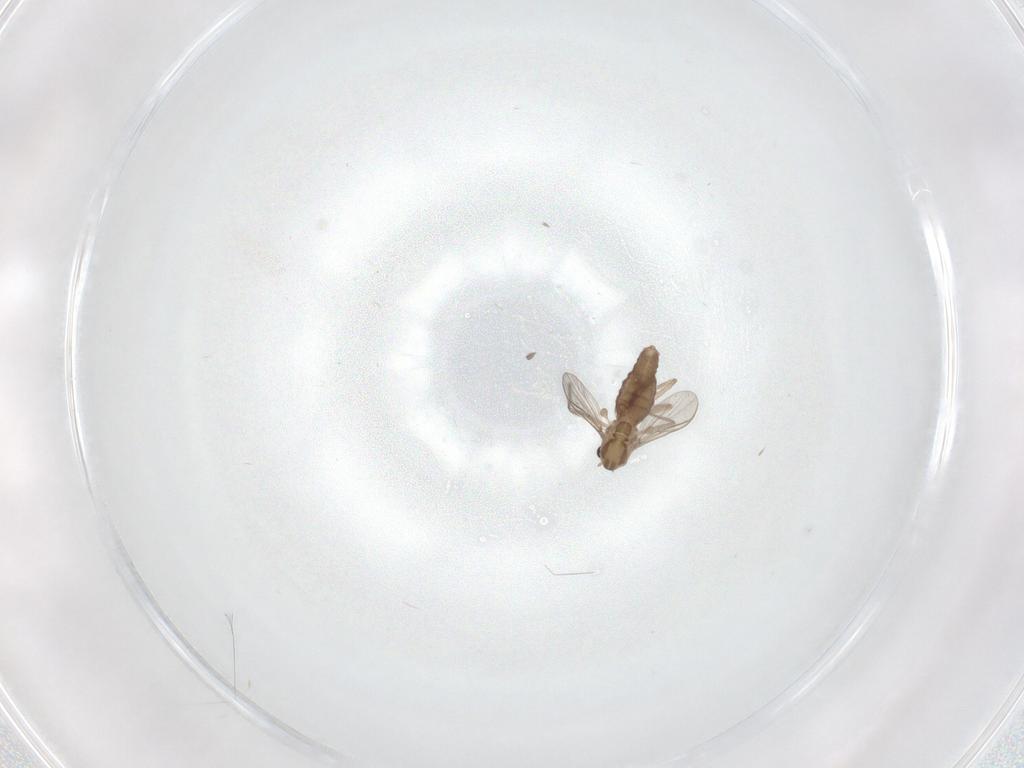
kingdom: Animalia
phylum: Arthropoda
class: Insecta
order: Diptera
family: Chironomidae
